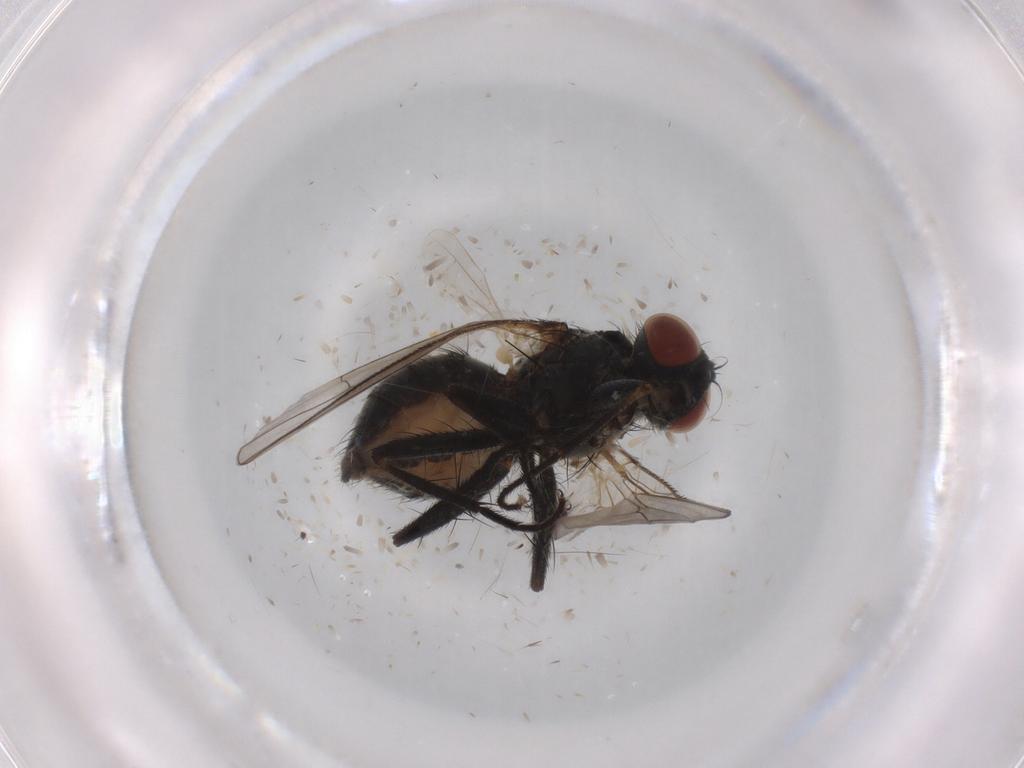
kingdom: Animalia
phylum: Arthropoda
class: Insecta
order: Diptera
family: Muscidae
